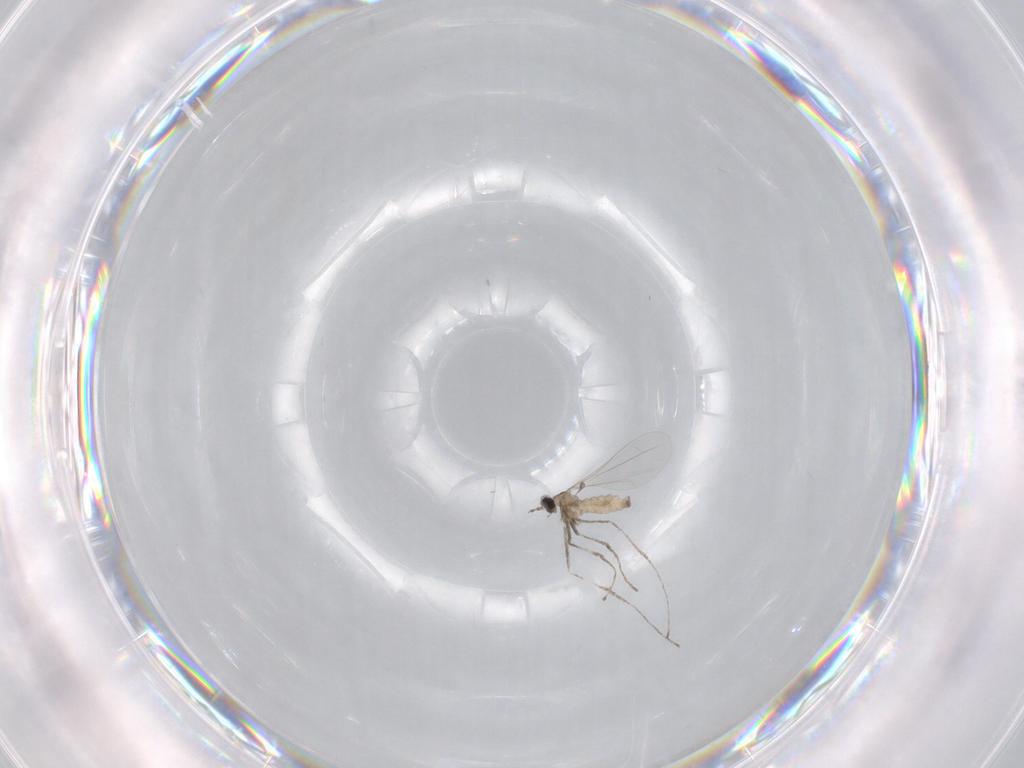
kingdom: Animalia
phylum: Arthropoda
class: Insecta
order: Diptera
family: Cecidomyiidae
